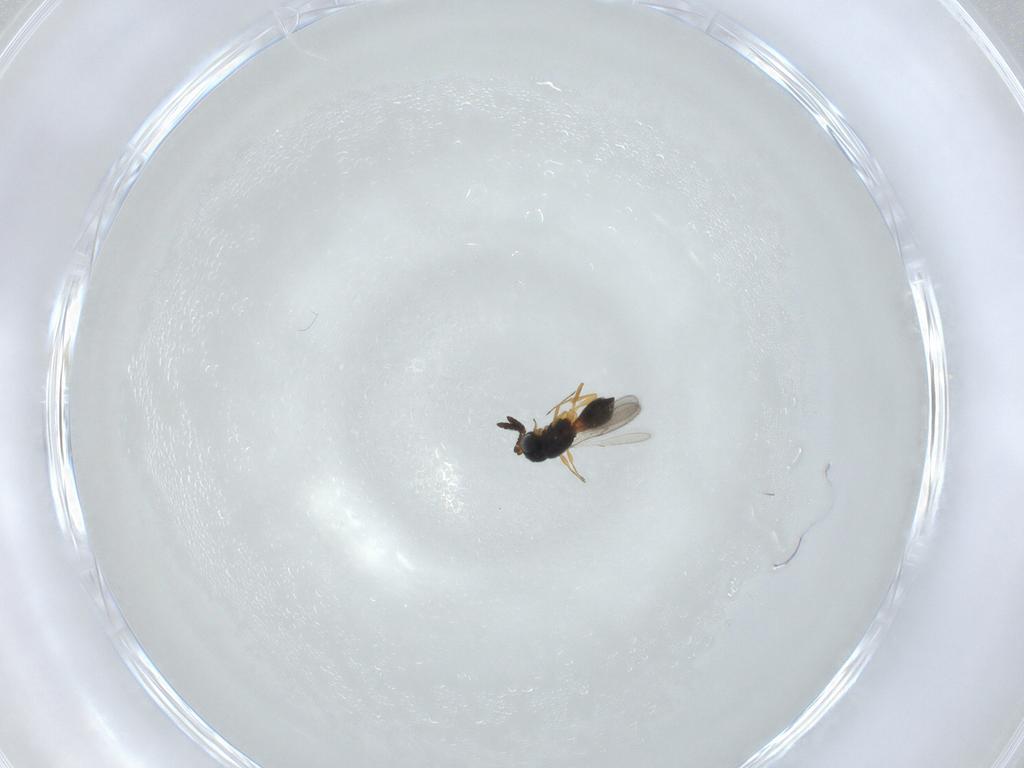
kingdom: Animalia
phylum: Arthropoda
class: Insecta
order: Hymenoptera
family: Scelionidae
